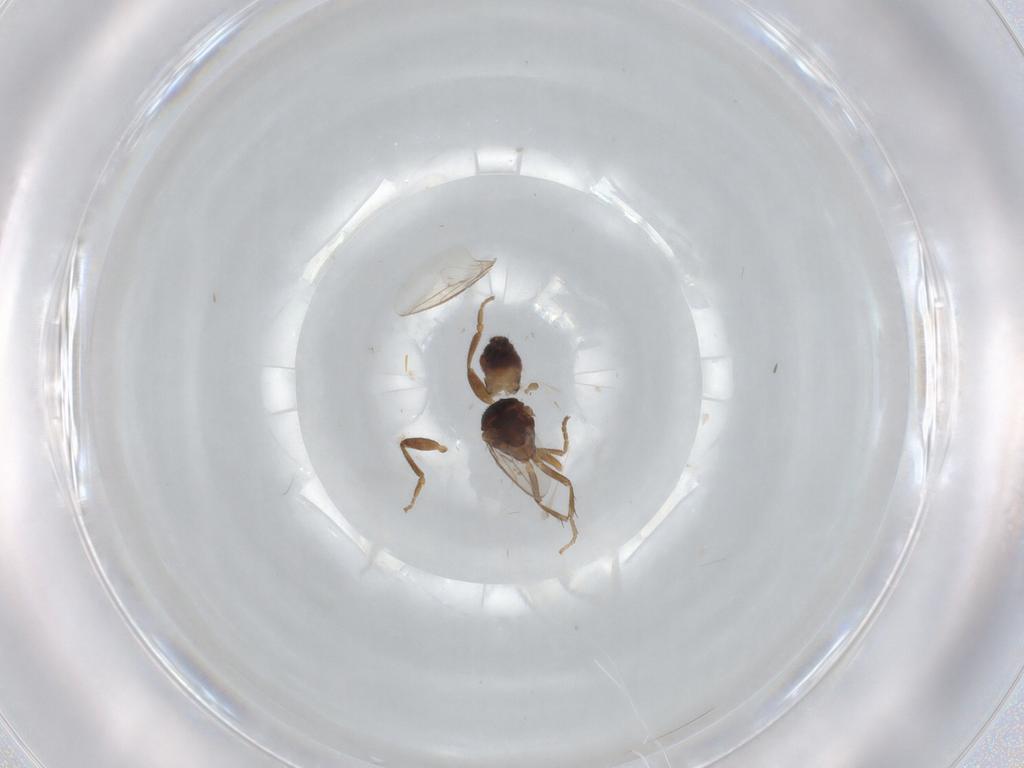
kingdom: Animalia
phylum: Arthropoda
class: Insecta
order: Diptera
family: Sphaeroceridae
